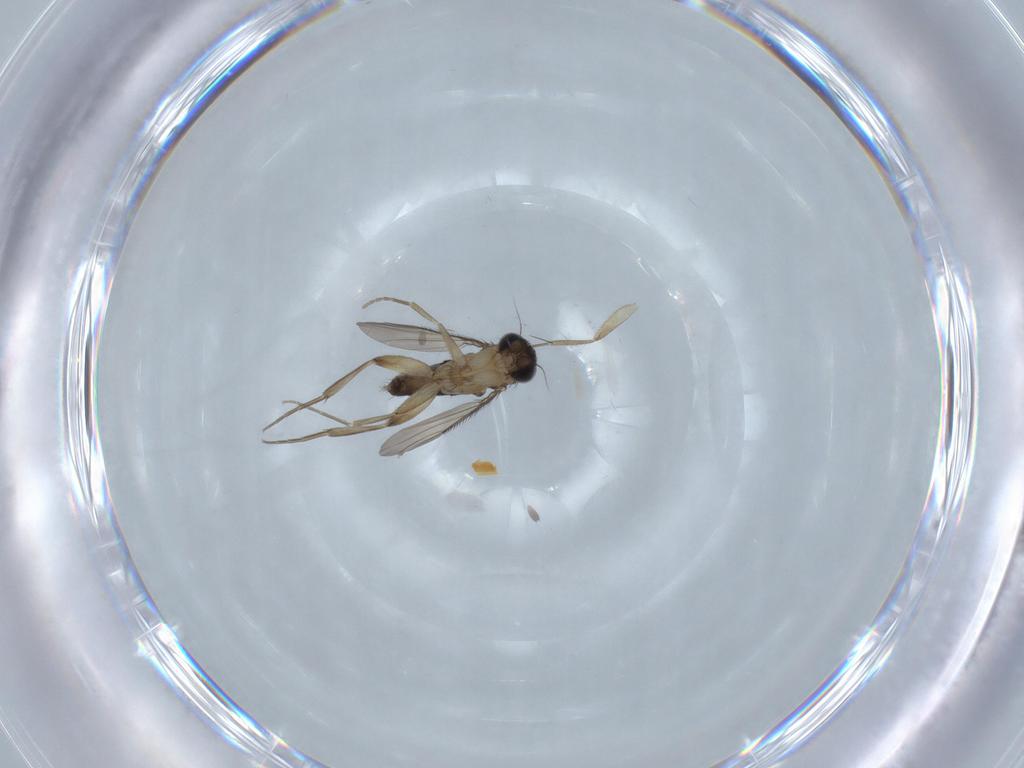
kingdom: Animalia
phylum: Arthropoda
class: Insecta
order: Diptera
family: Phoridae
